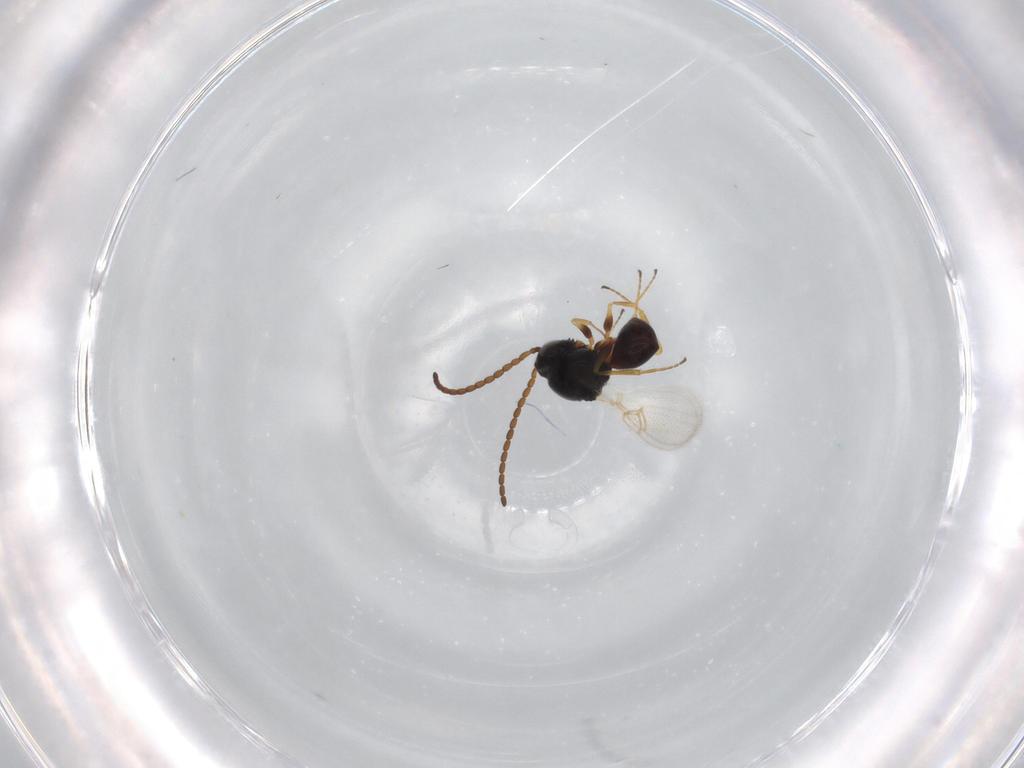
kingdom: Animalia
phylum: Arthropoda
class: Insecta
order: Hymenoptera
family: Figitidae
